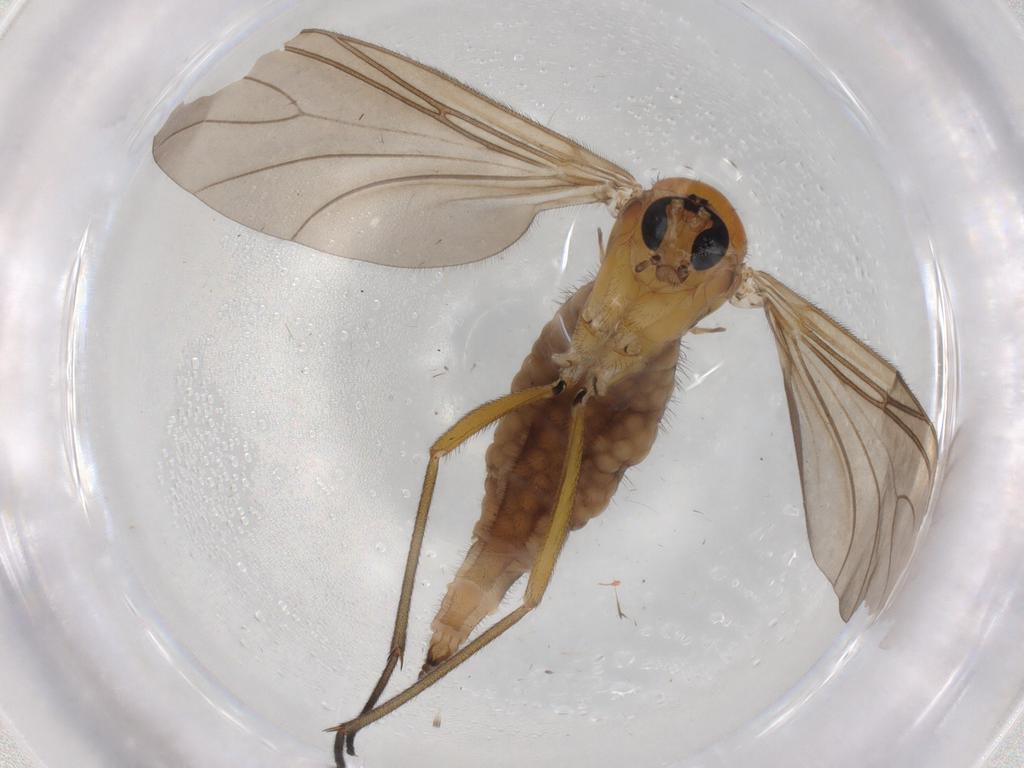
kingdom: Animalia
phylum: Arthropoda
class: Insecta
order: Diptera
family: Sciaridae
